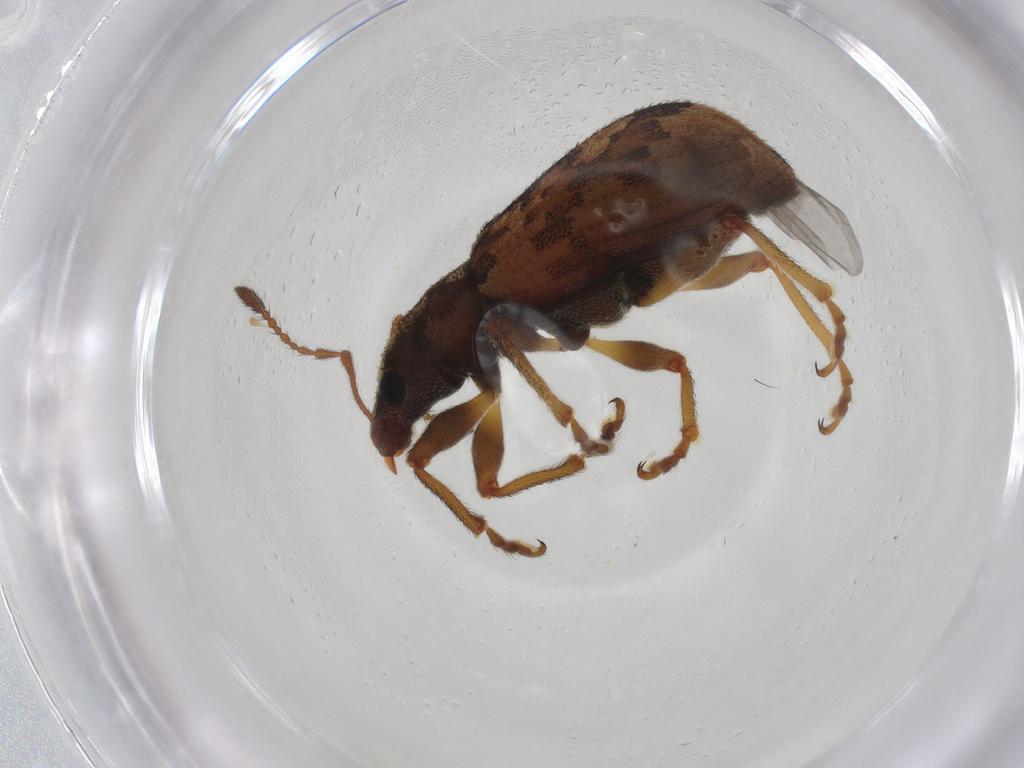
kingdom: Animalia
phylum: Arthropoda
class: Insecta
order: Coleoptera
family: Curculionidae
